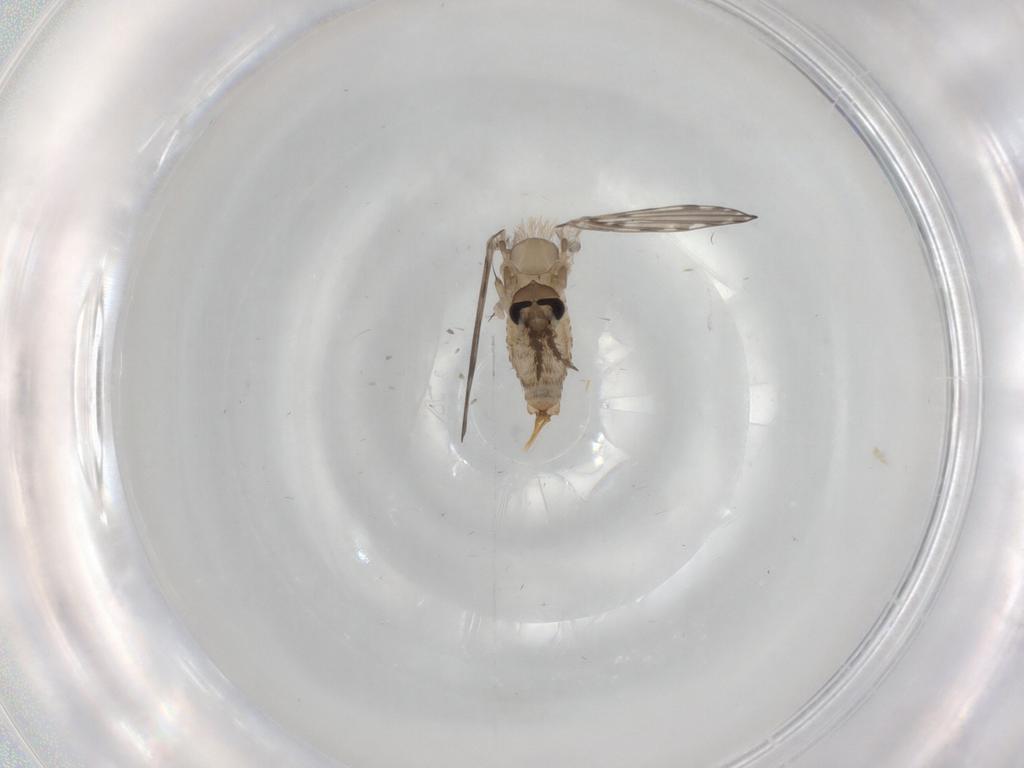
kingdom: Animalia
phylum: Arthropoda
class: Insecta
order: Diptera
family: Psychodidae
